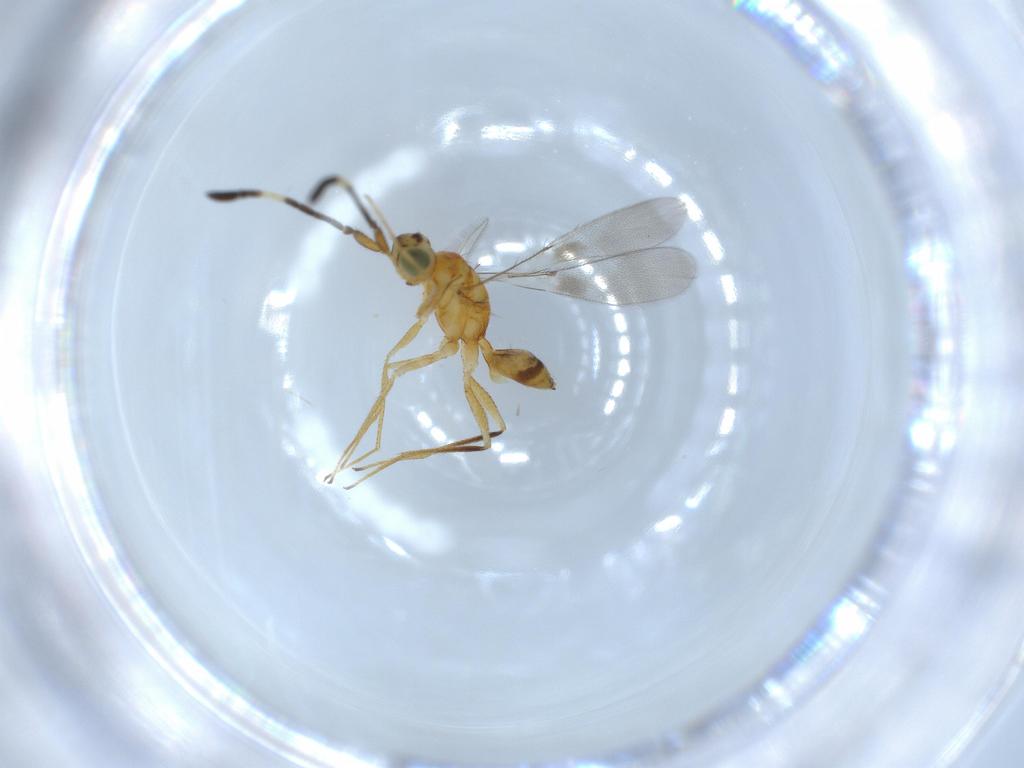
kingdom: Animalia
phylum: Arthropoda
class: Insecta
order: Hymenoptera
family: Mymaridae
